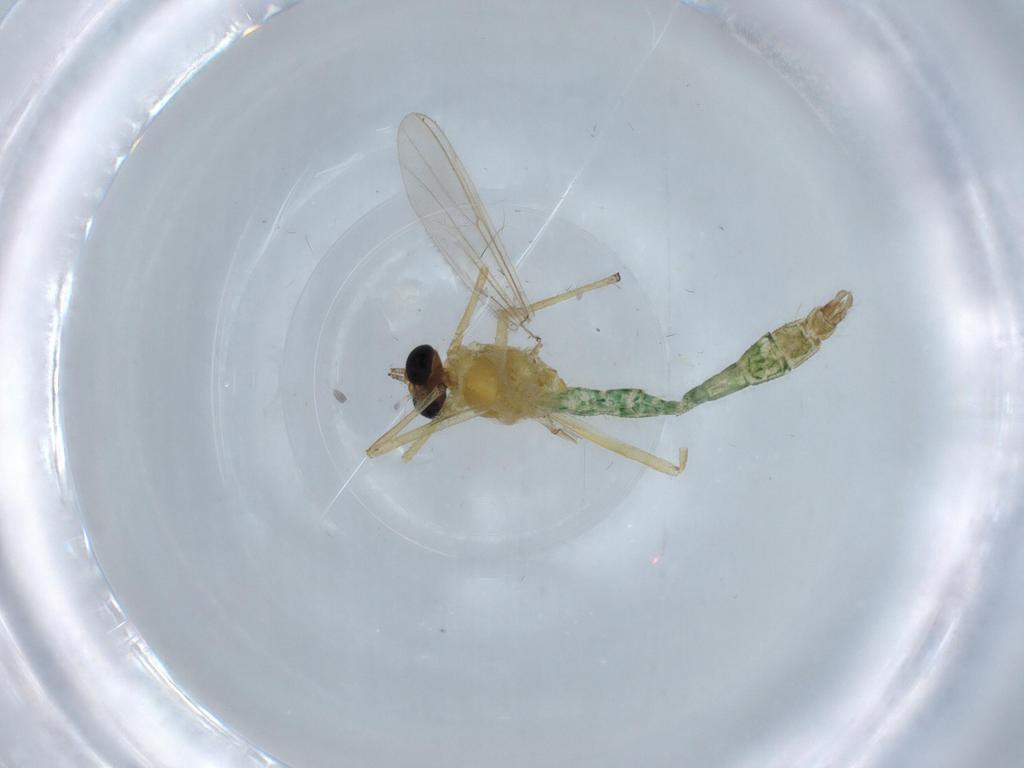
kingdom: Animalia
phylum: Arthropoda
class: Insecta
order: Diptera
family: Chironomidae
